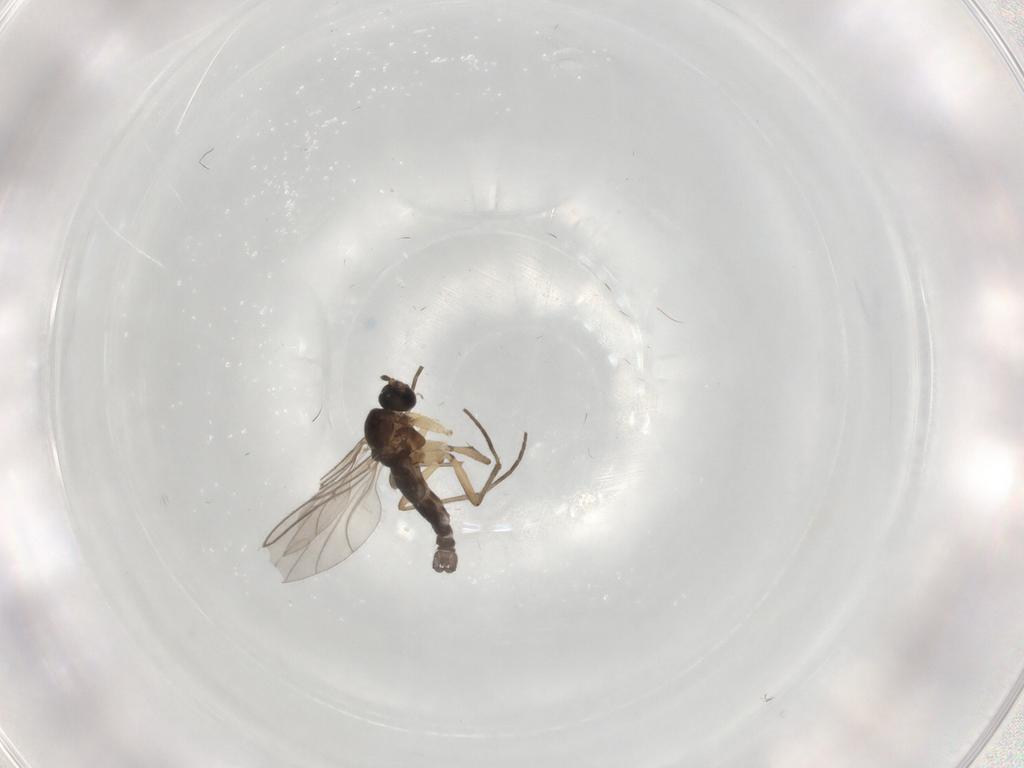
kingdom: Animalia
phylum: Arthropoda
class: Insecta
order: Diptera
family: Sciaridae
